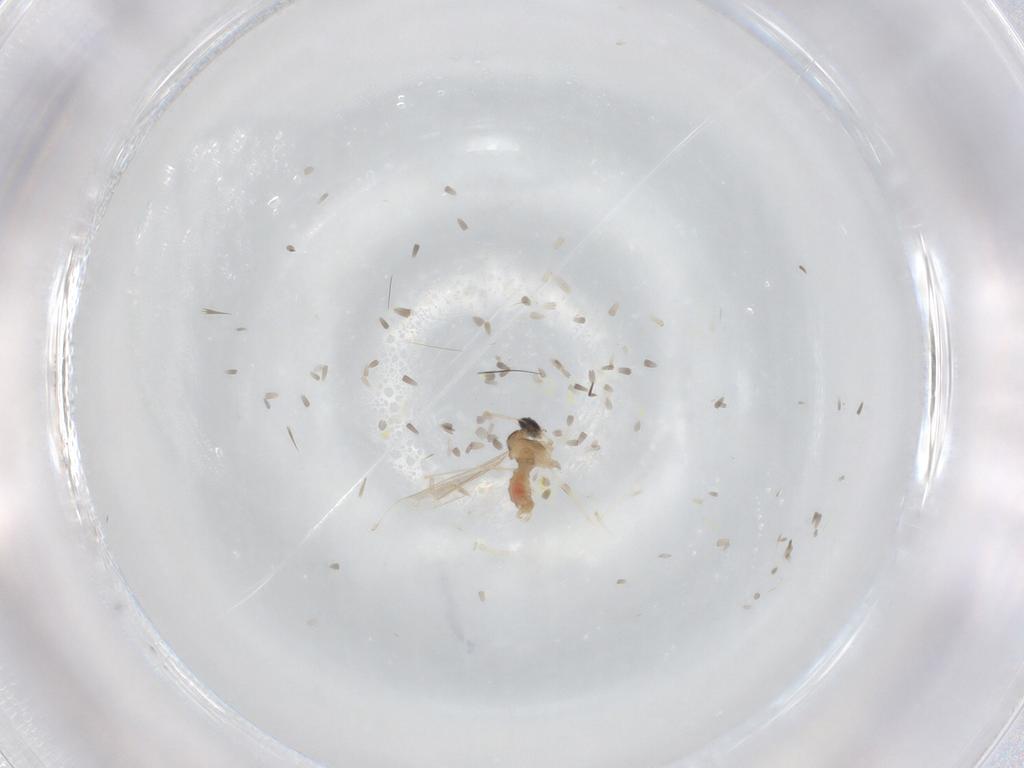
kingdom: Animalia
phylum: Arthropoda
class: Insecta
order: Diptera
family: Cecidomyiidae
